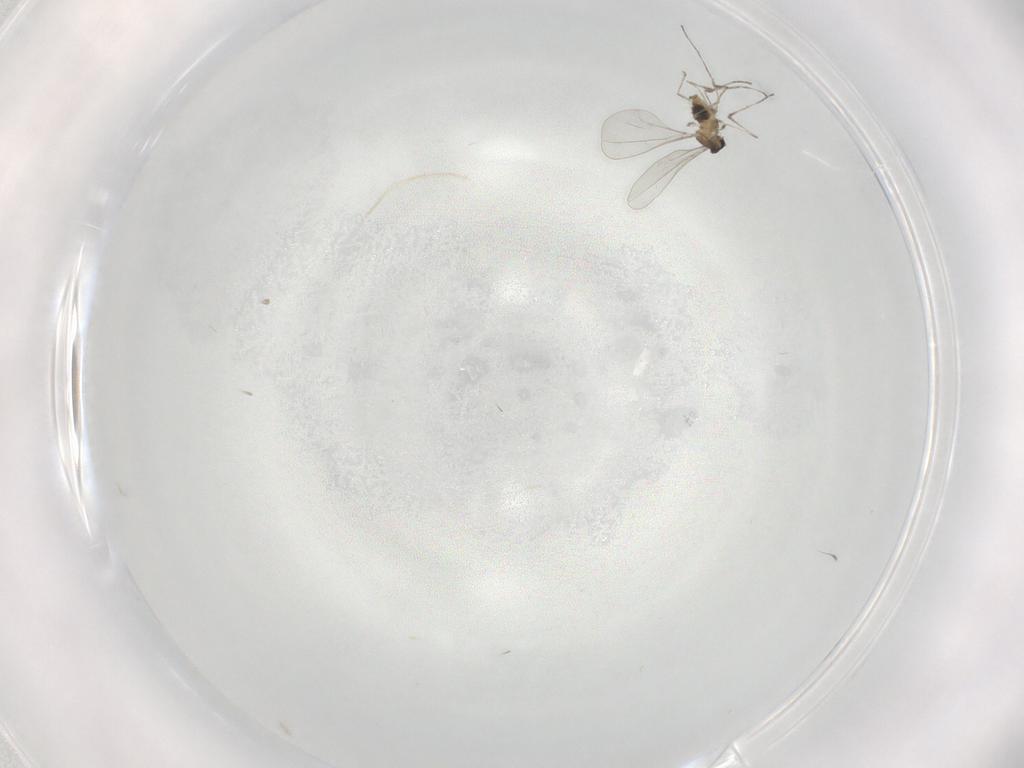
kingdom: Animalia
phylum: Arthropoda
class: Insecta
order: Diptera
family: Cecidomyiidae
